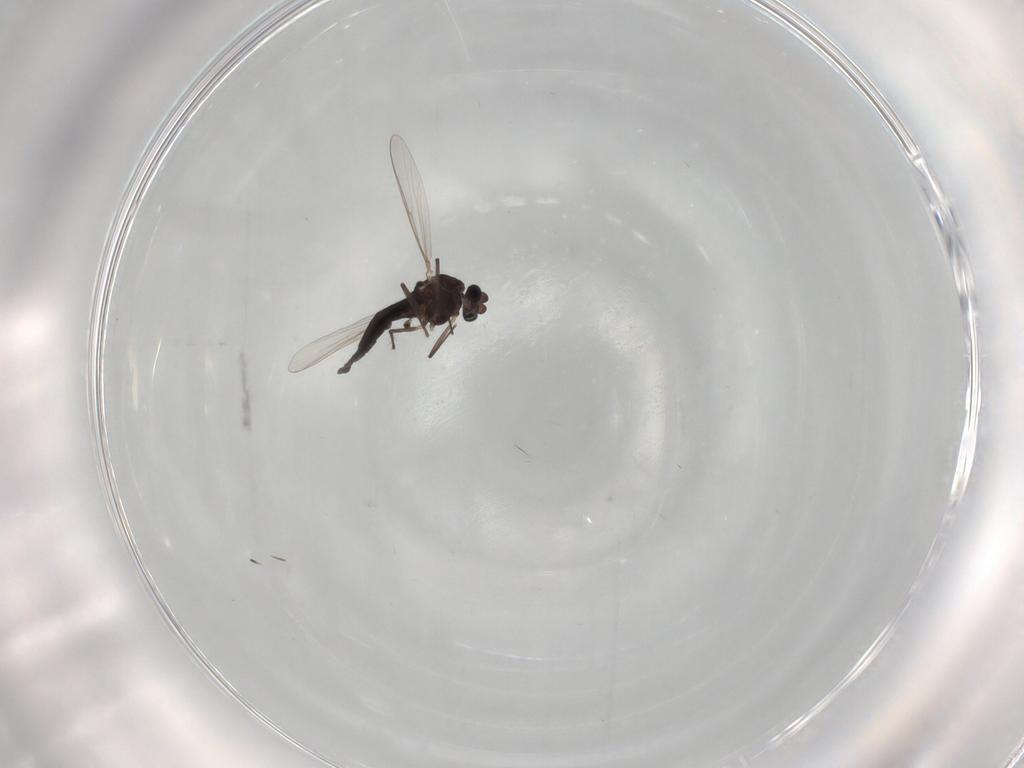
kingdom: Animalia
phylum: Arthropoda
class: Insecta
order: Diptera
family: Chironomidae
